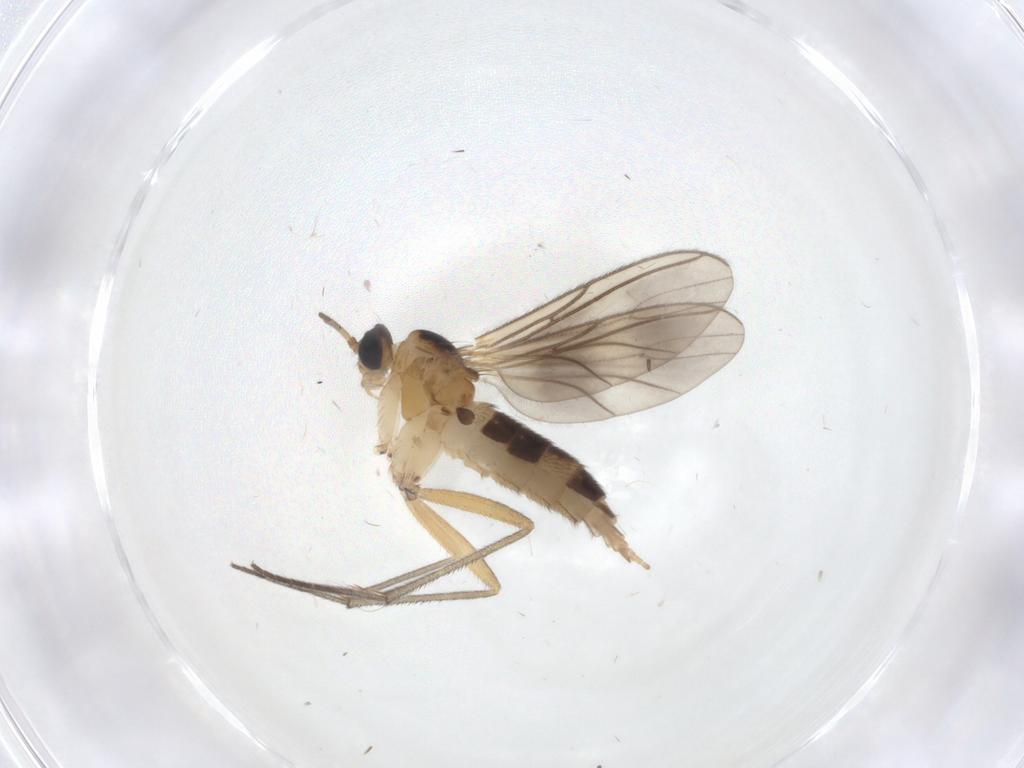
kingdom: Animalia
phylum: Arthropoda
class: Insecta
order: Diptera
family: Sciaridae
